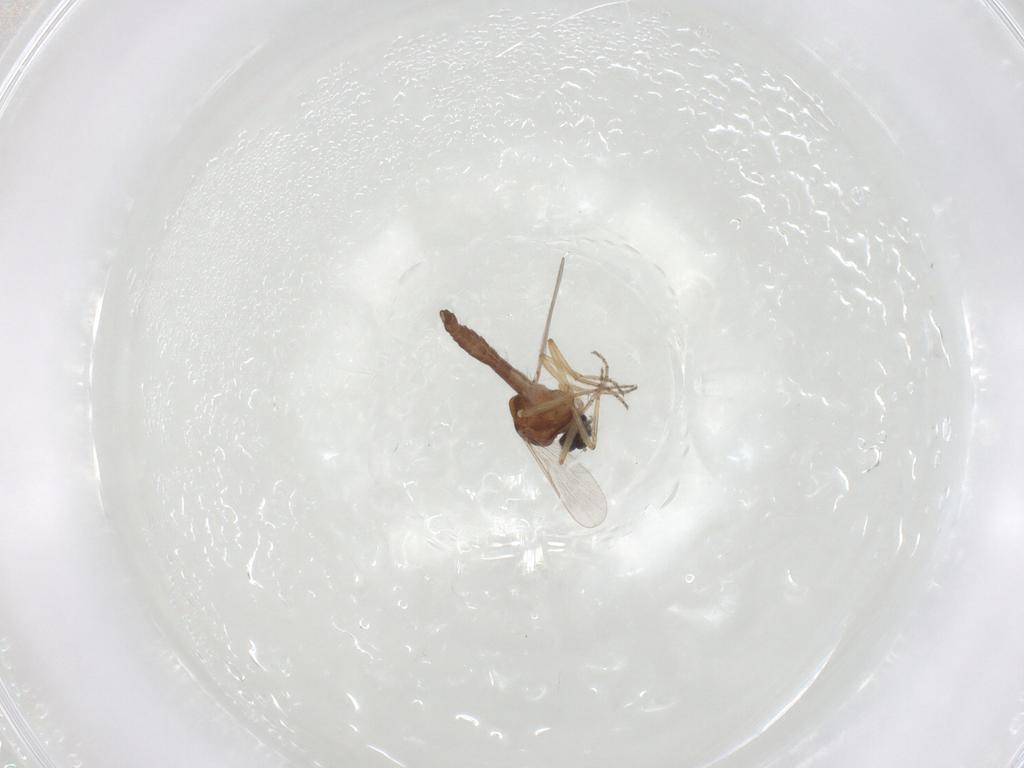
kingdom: Animalia
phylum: Arthropoda
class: Insecta
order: Diptera
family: Ceratopogonidae
